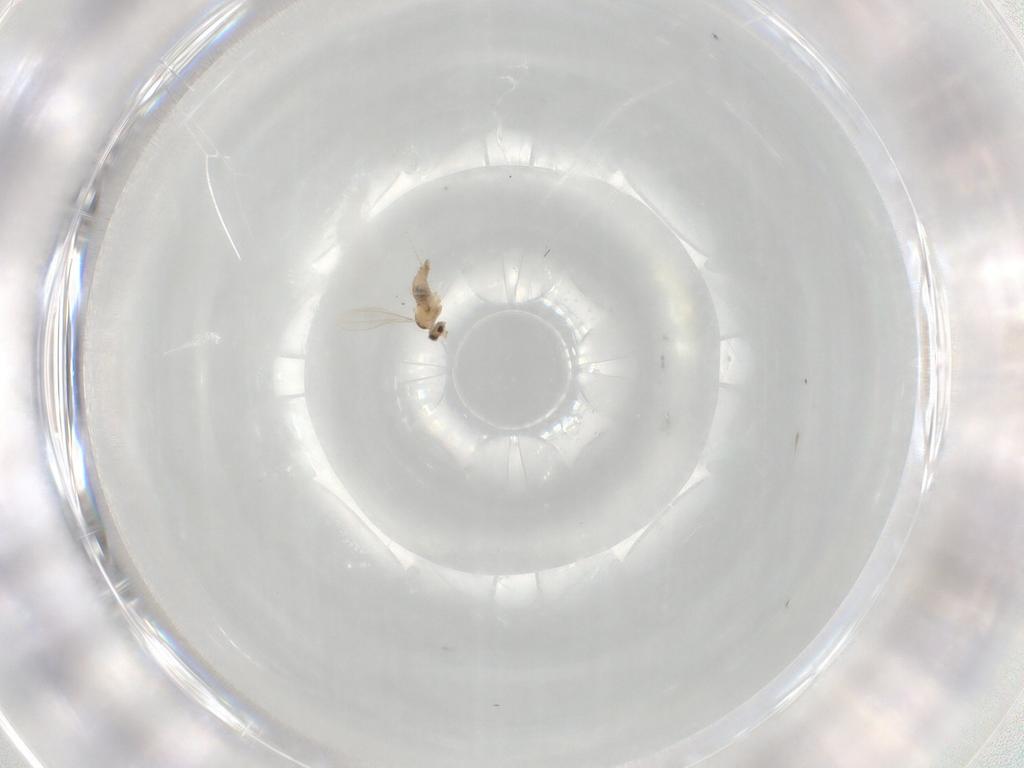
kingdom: Animalia
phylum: Arthropoda
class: Insecta
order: Diptera
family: Cecidomyiidae
